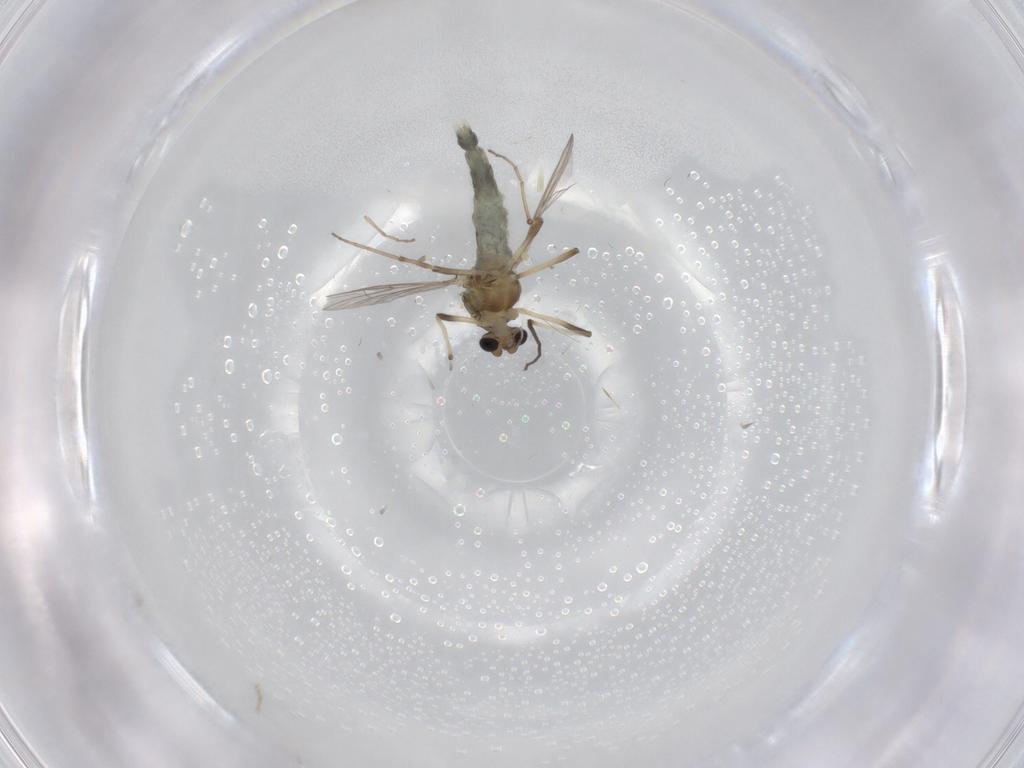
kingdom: Animalia
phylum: Arthropoda
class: Insecta
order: Diptera
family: Chironomidae
